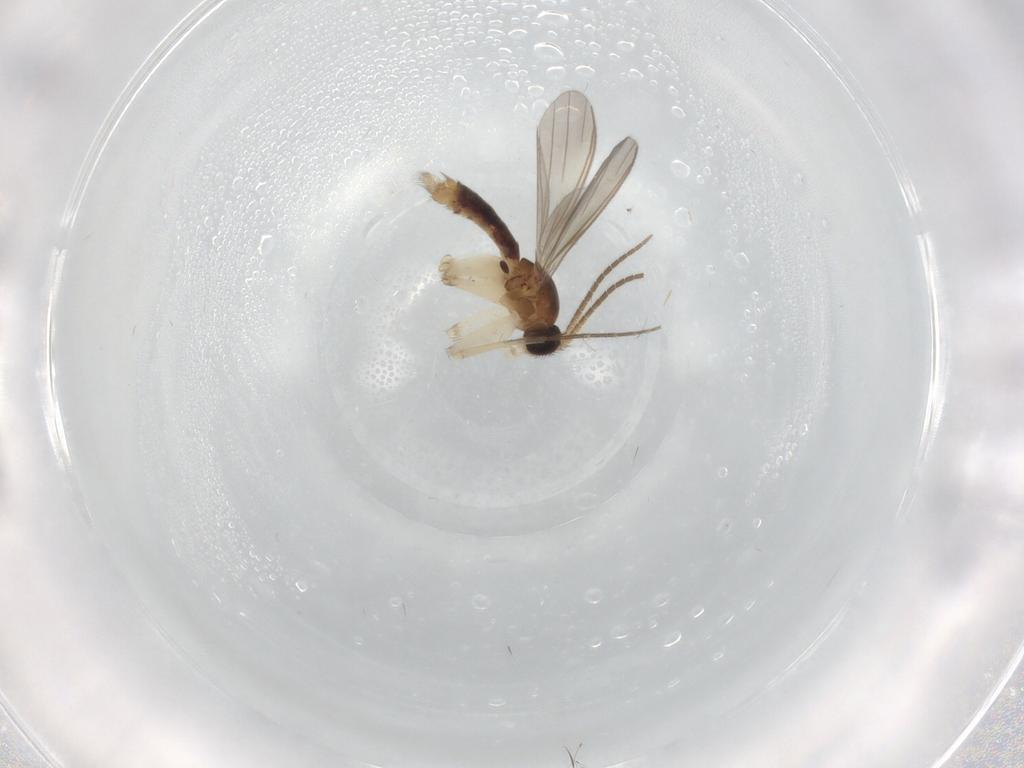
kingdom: Animalia
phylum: Arthropoda
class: Insecta
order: Diptera
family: Mycetophilidae
